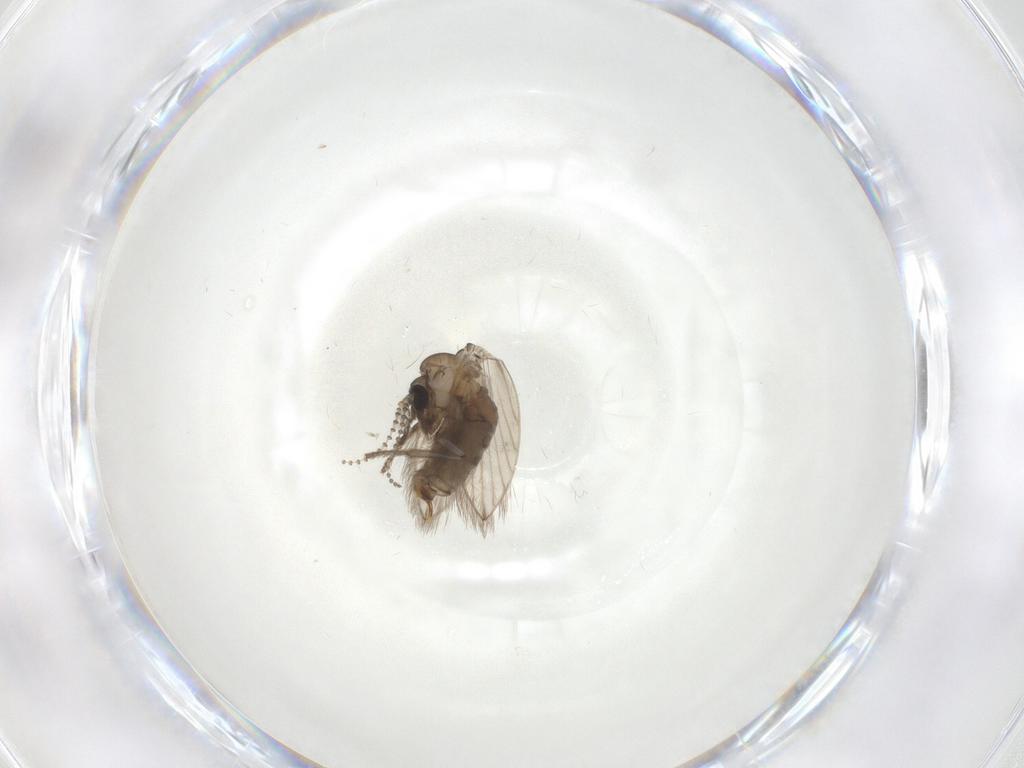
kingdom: Animalia
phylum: Arthropoda
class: Insecta
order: Diptera
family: Psychodidae
